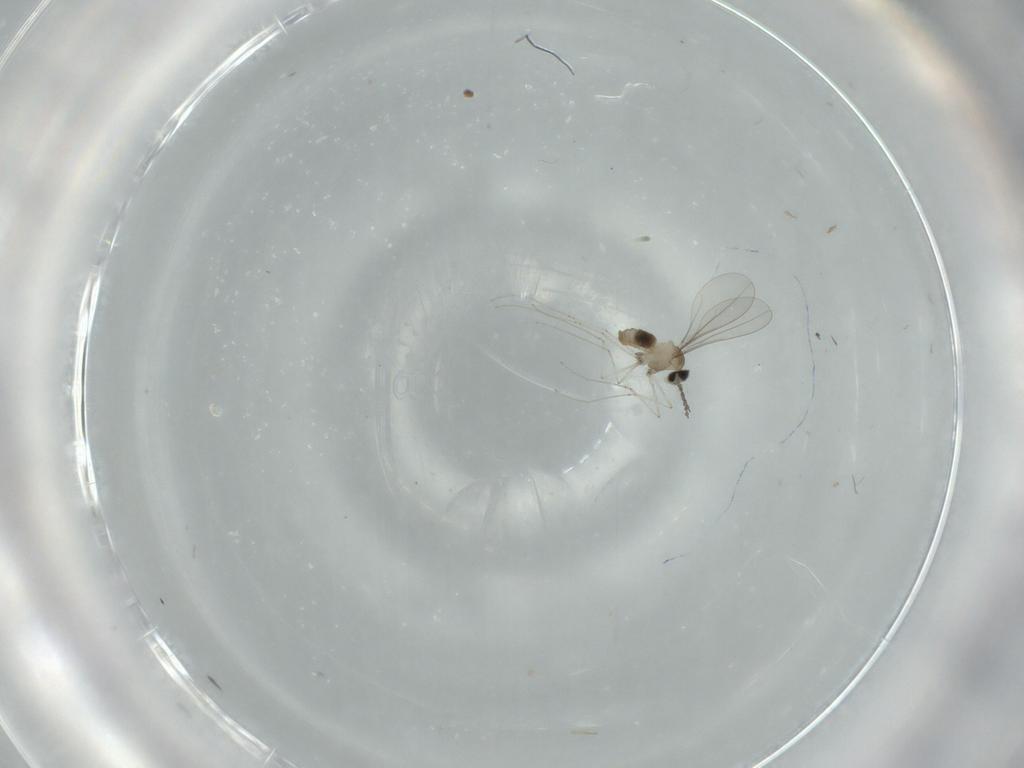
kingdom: Animalia
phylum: Arthropoda
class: Insecta
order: Diptera
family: Cecidomyiidae
